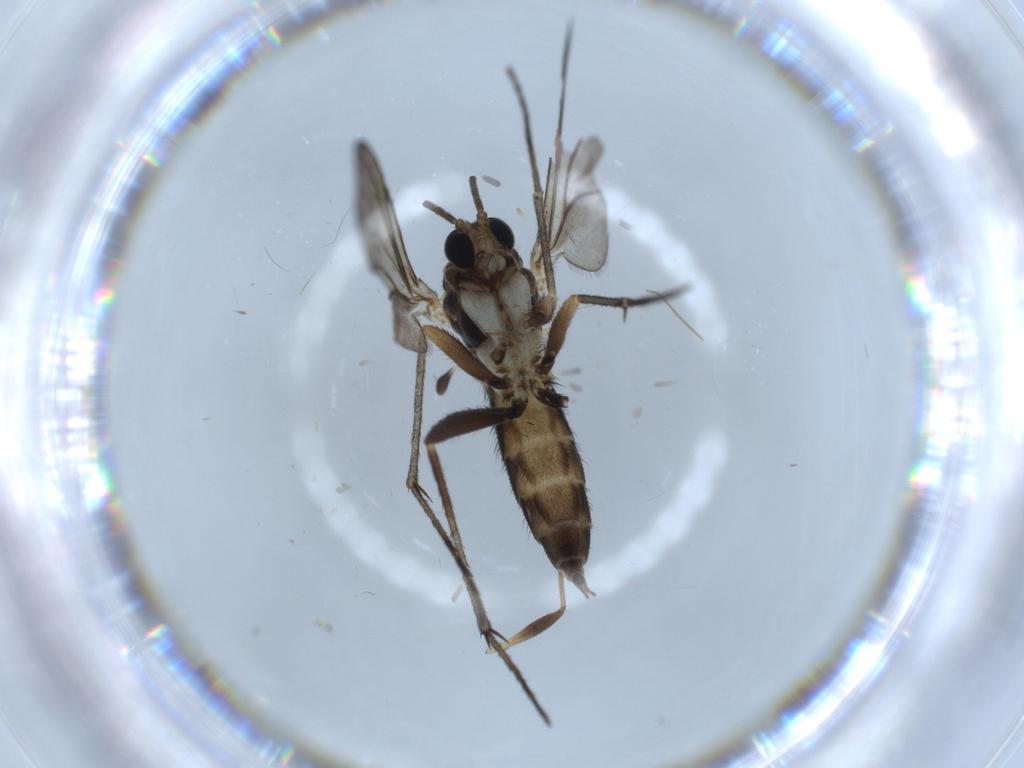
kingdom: Animalia
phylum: Arthropoda
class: Insecta
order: Diptera
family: Sciaridae
